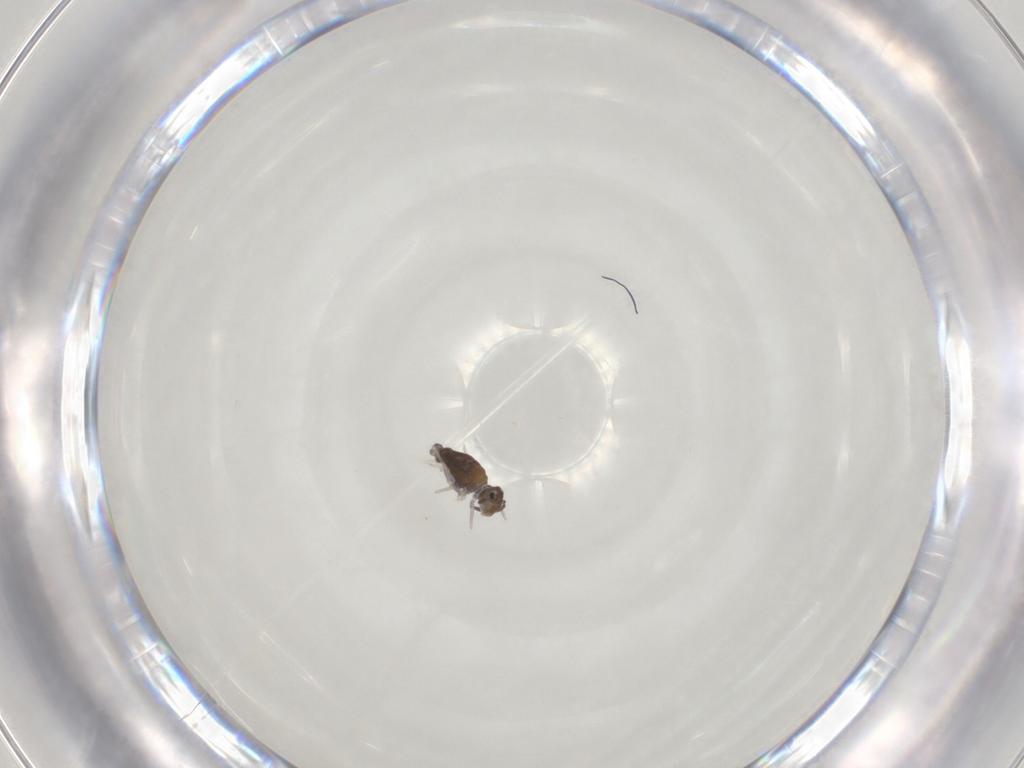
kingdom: Animalia
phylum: Arthropoda
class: Collembola
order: Symphypleona
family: Katiannidae
